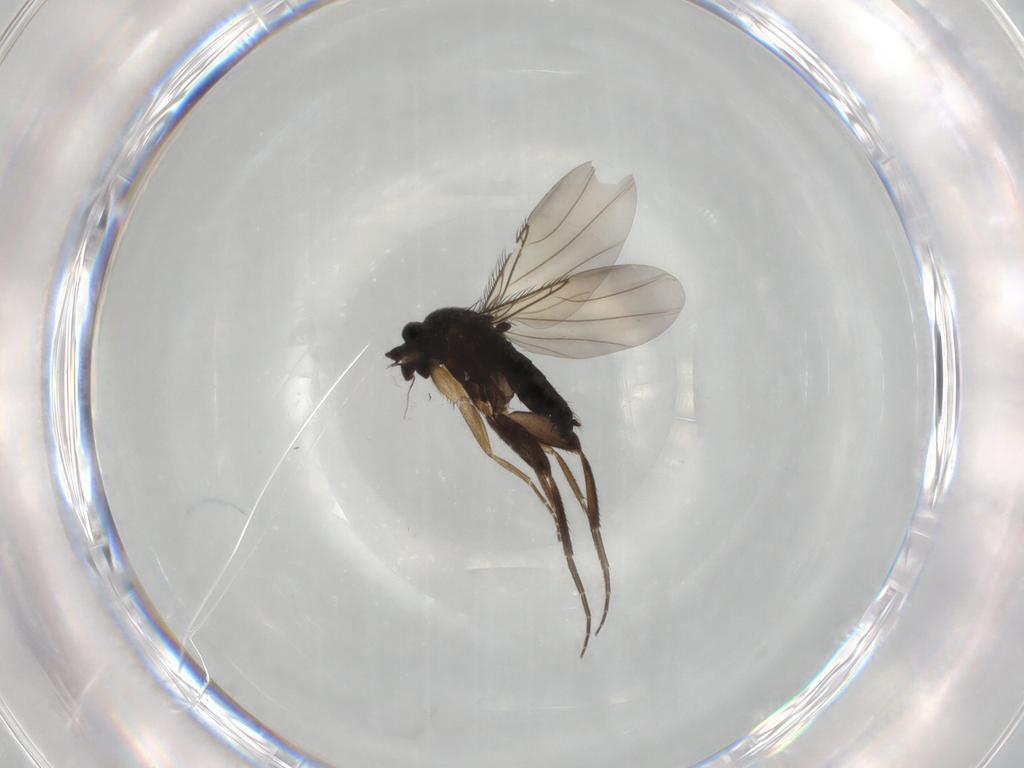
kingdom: Animalia
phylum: Arthropoda
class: Insecta
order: Diptera
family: Phoridae
